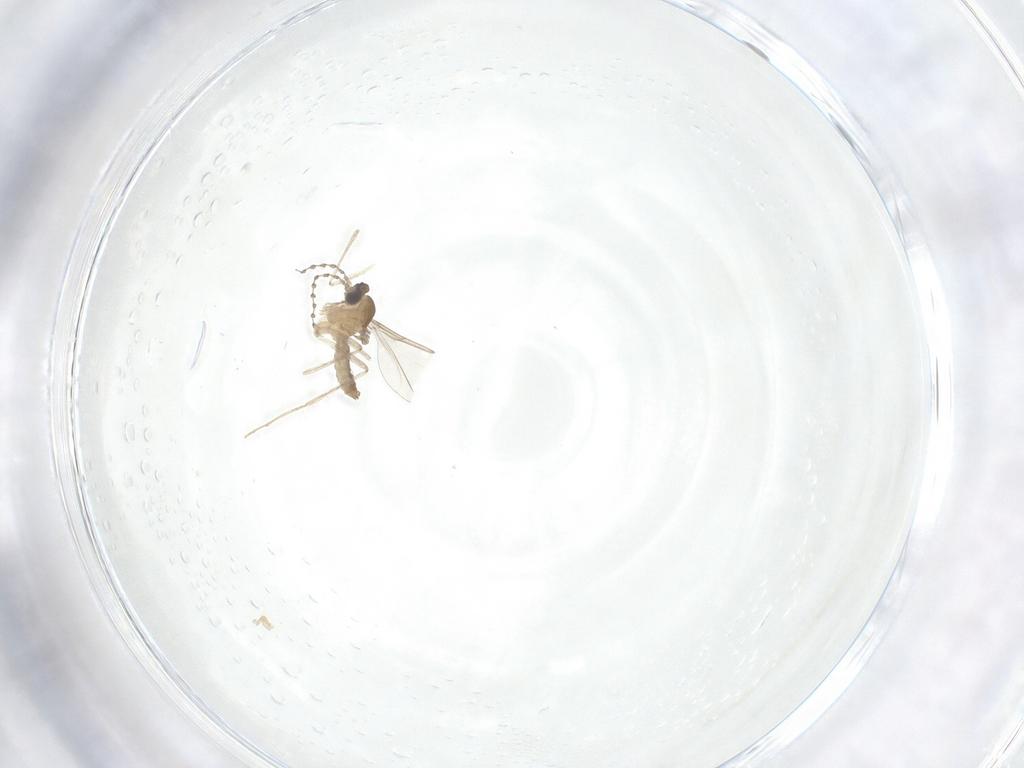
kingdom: Animalia
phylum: Arthropoda
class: Insecta
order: Diptera
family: Cecidomyiidae
